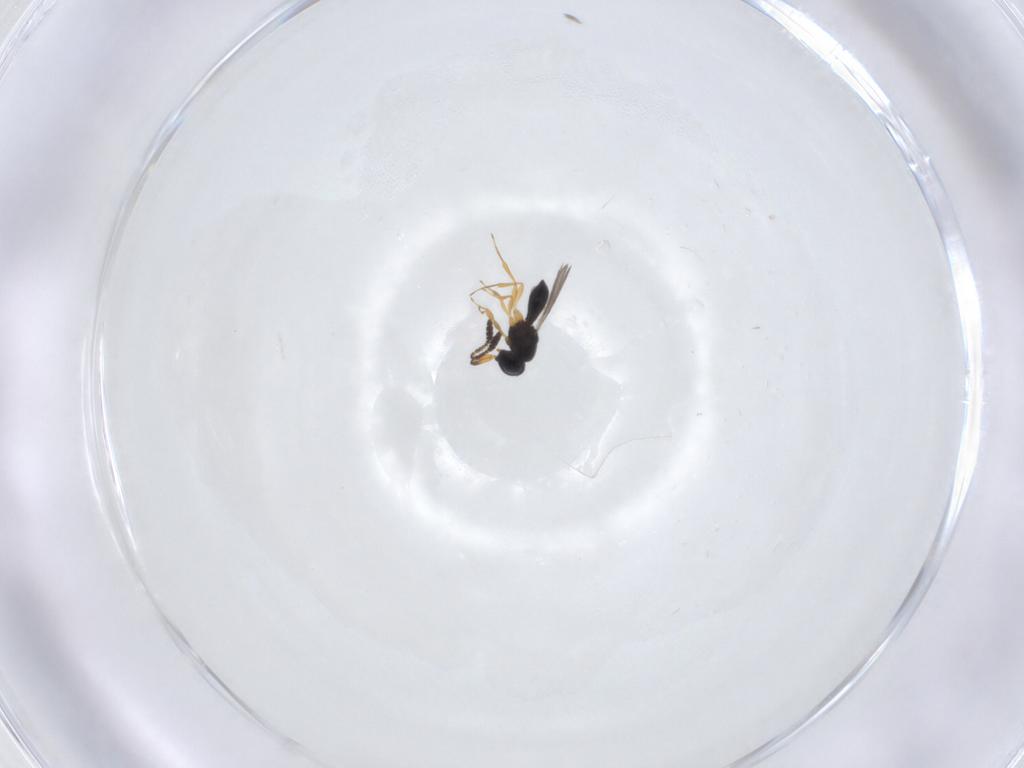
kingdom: Animalia
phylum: Arthropoda
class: Insecta
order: Hymenoptera
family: Scelionidae
